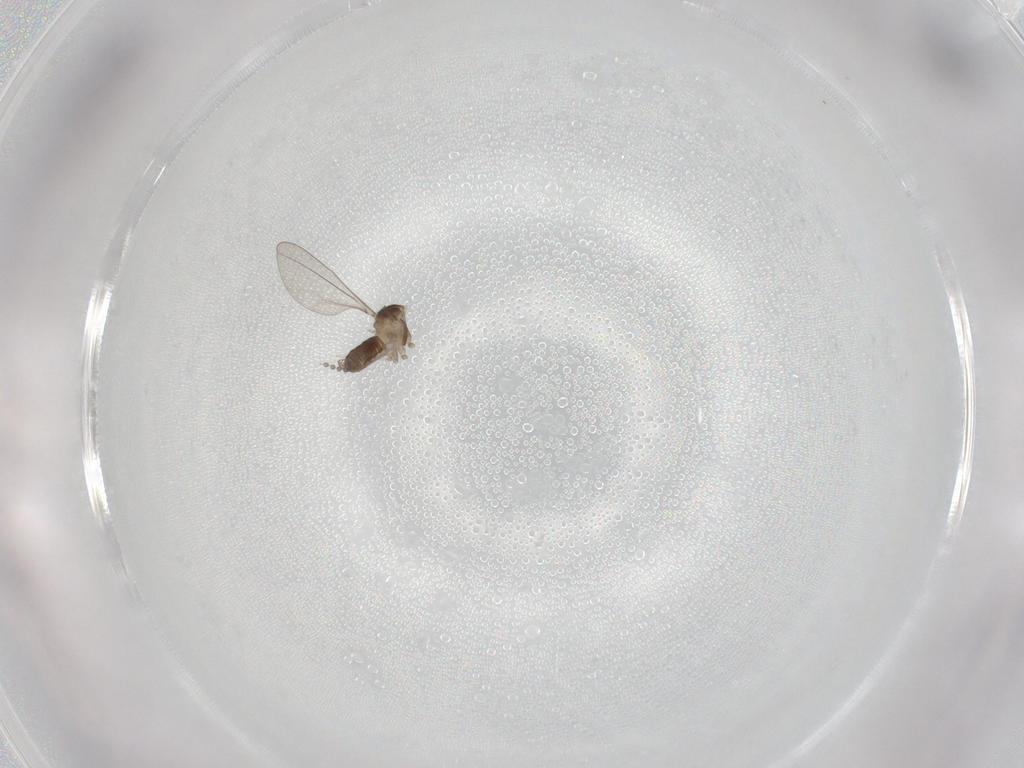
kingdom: Animalia
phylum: Arthropoda
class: Insecta
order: Diptera
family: Cecidomyiidae
